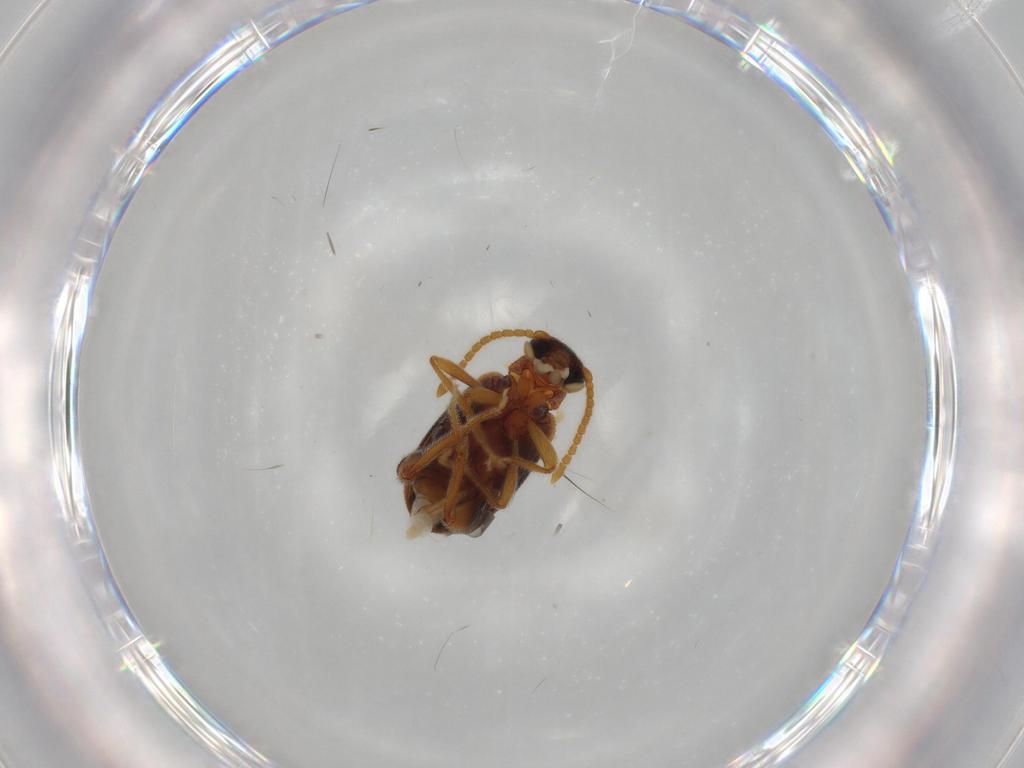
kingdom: Animalia
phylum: Arthropoda
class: Insecta
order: Coleoptera
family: Aderidae
